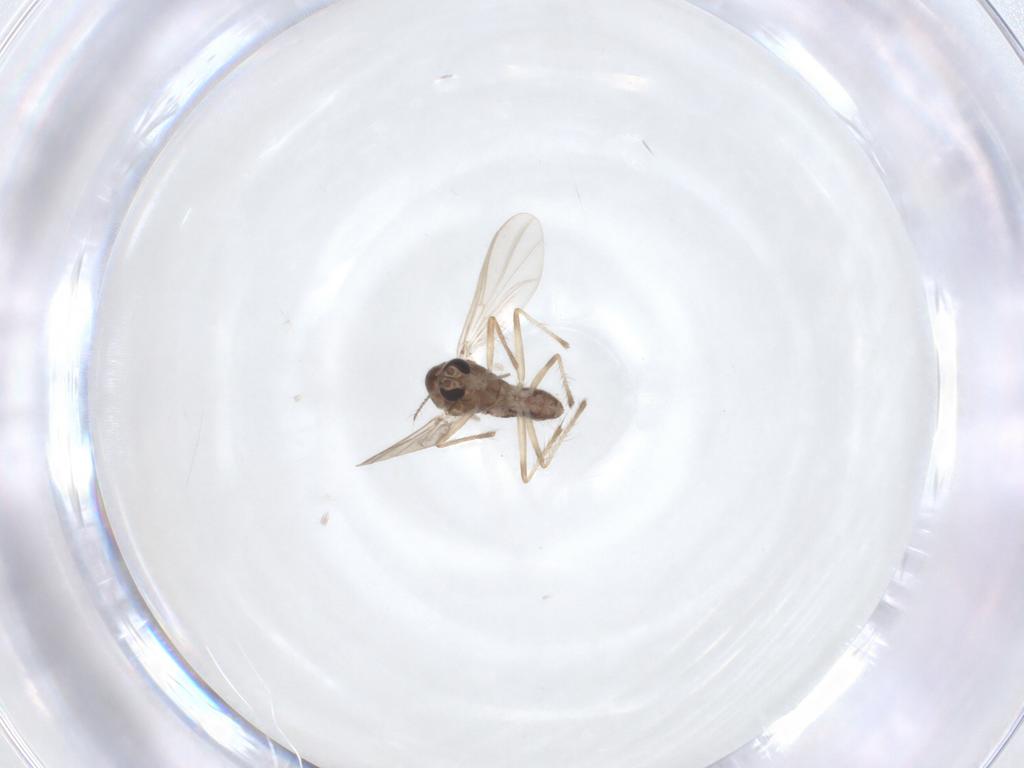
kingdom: Animalia
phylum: Arthropoda
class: Insecta
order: Diptera
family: Chironomidae
